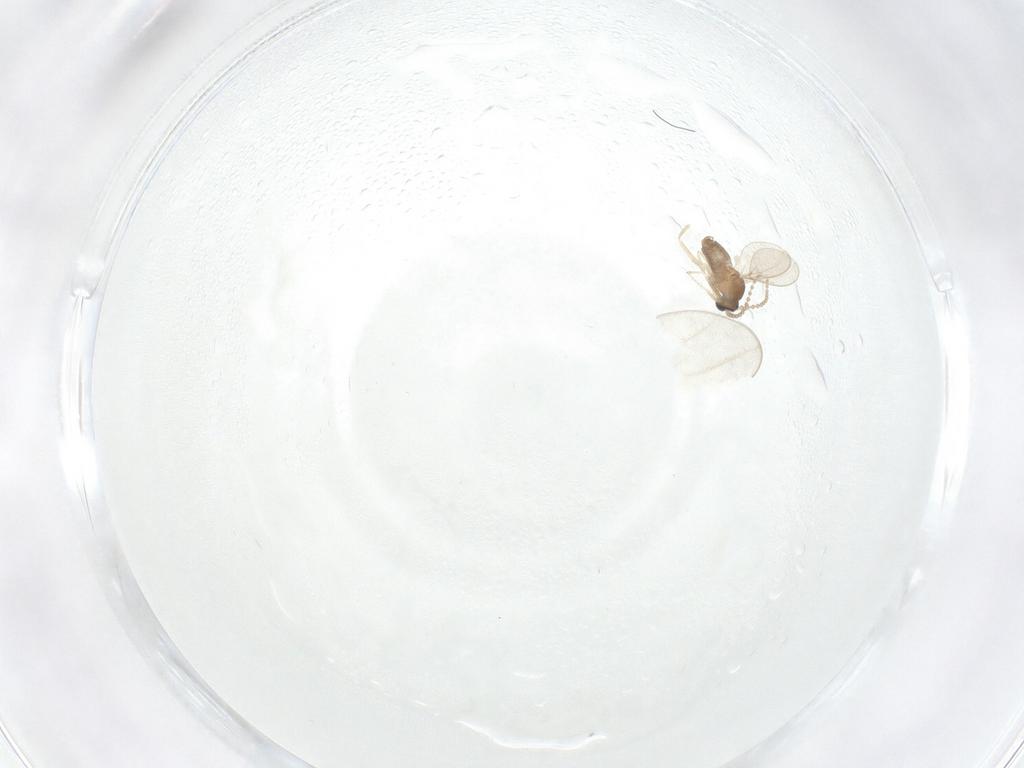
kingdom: Animalia
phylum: Arthropoda
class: Insecta
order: Diptera
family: Cecidomyiidae
